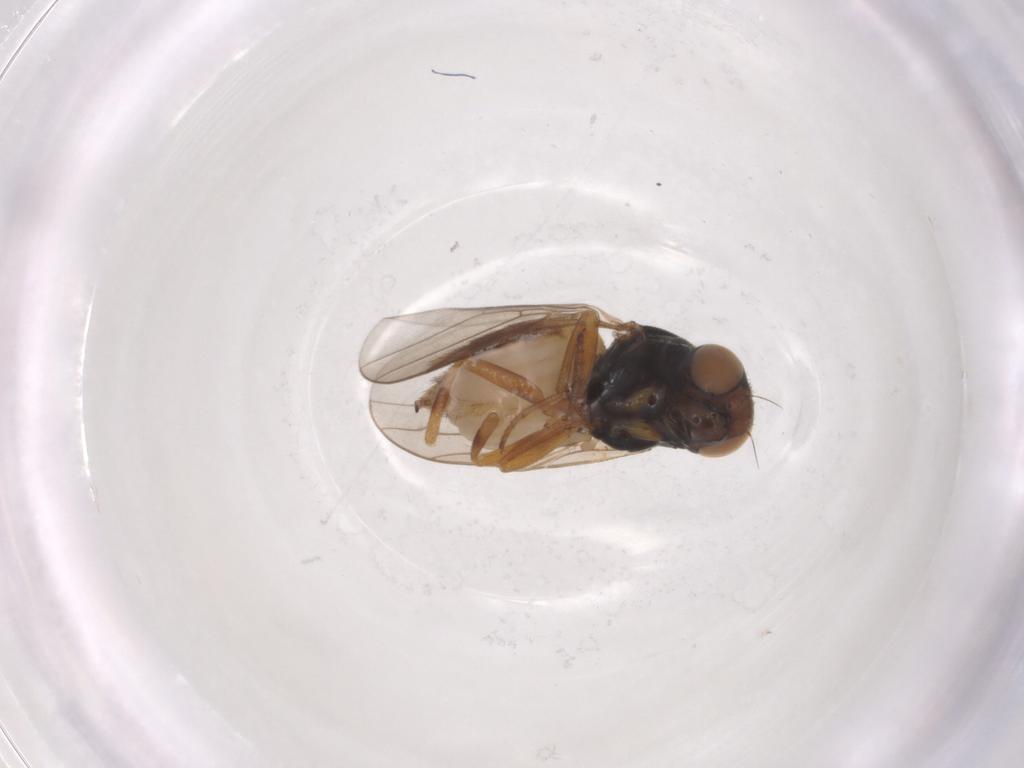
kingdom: Animalia
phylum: Arthropoda
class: Insecta
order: Diptera
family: Chloropidae
